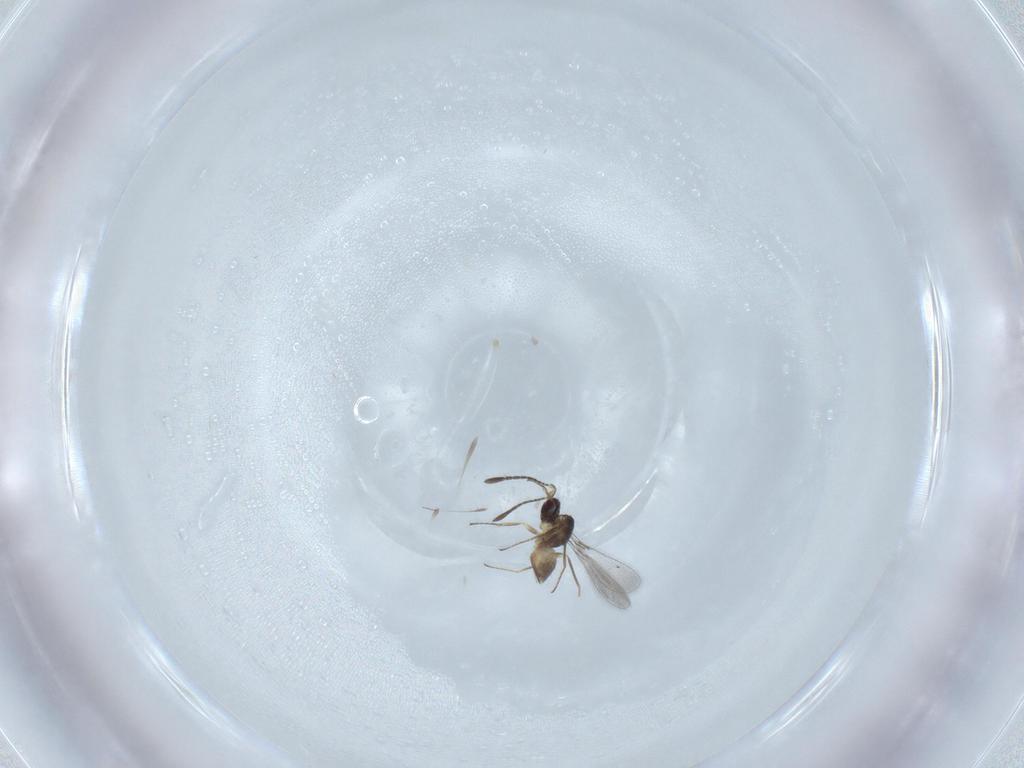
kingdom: Animalia
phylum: Arthropoda
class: Insecta
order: Hymenoptera
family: Mymaridae
